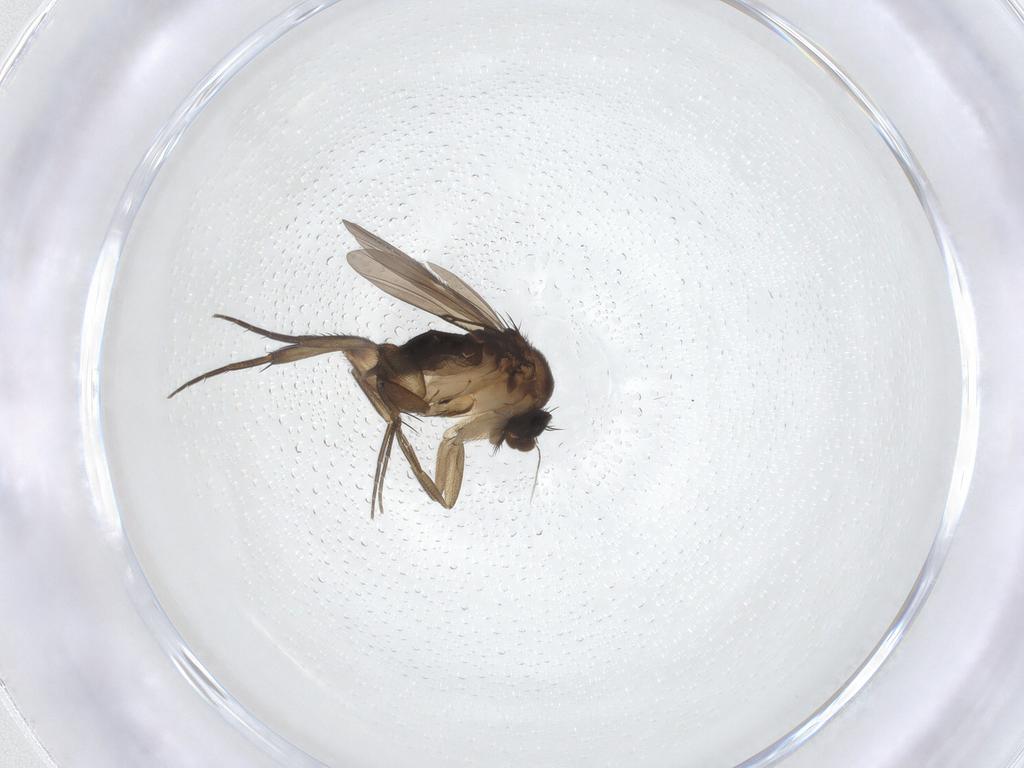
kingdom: Animalia
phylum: Arthropoda
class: Insecta
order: Diptera
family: Phoridae
